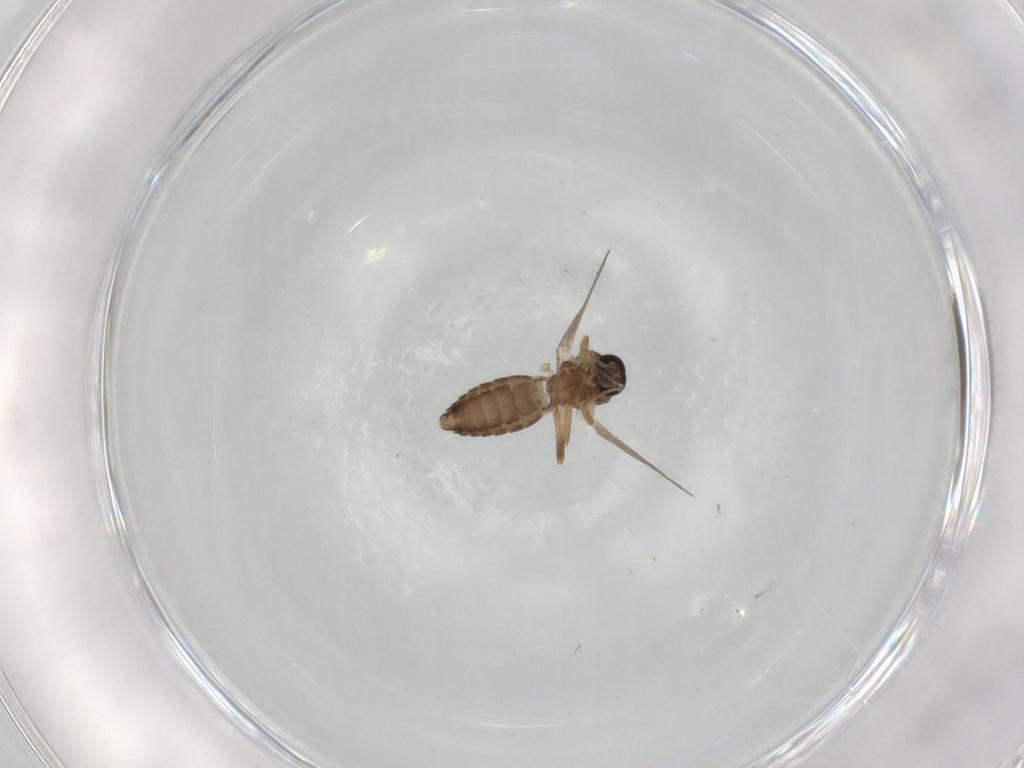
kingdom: Animalia
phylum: Arthropoda
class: Insecta
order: Diptera
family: Ceratopogonidae
